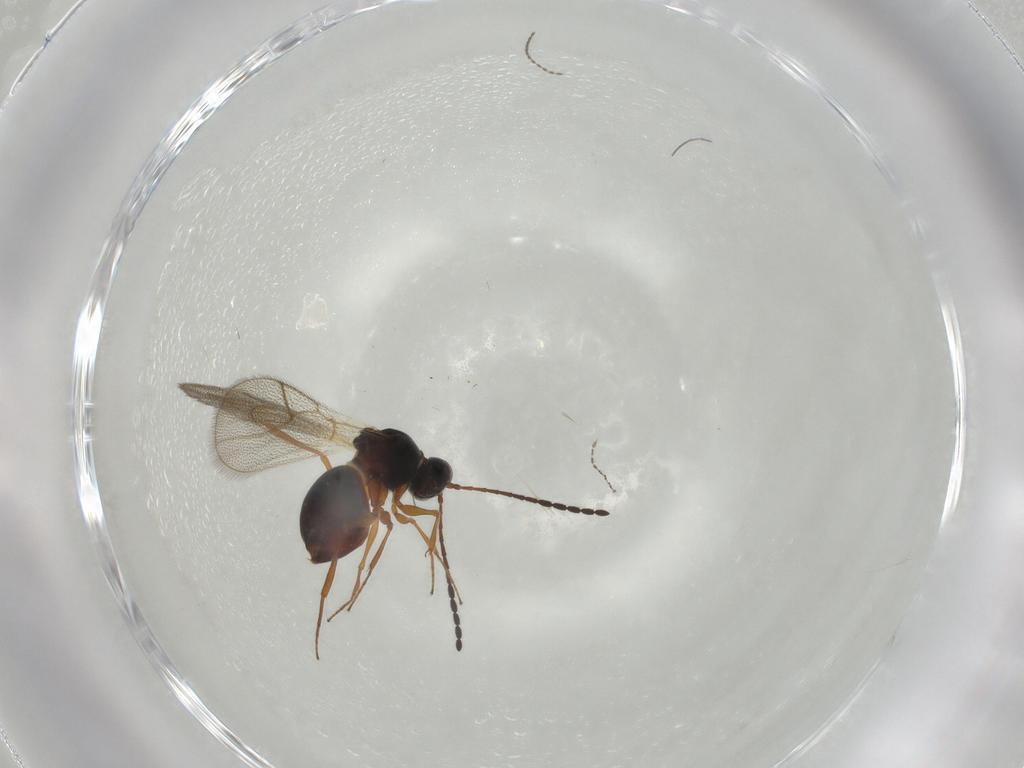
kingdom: Animalia
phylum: Arthropoda
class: Insecta
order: Hymenoptera
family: Figitidae
